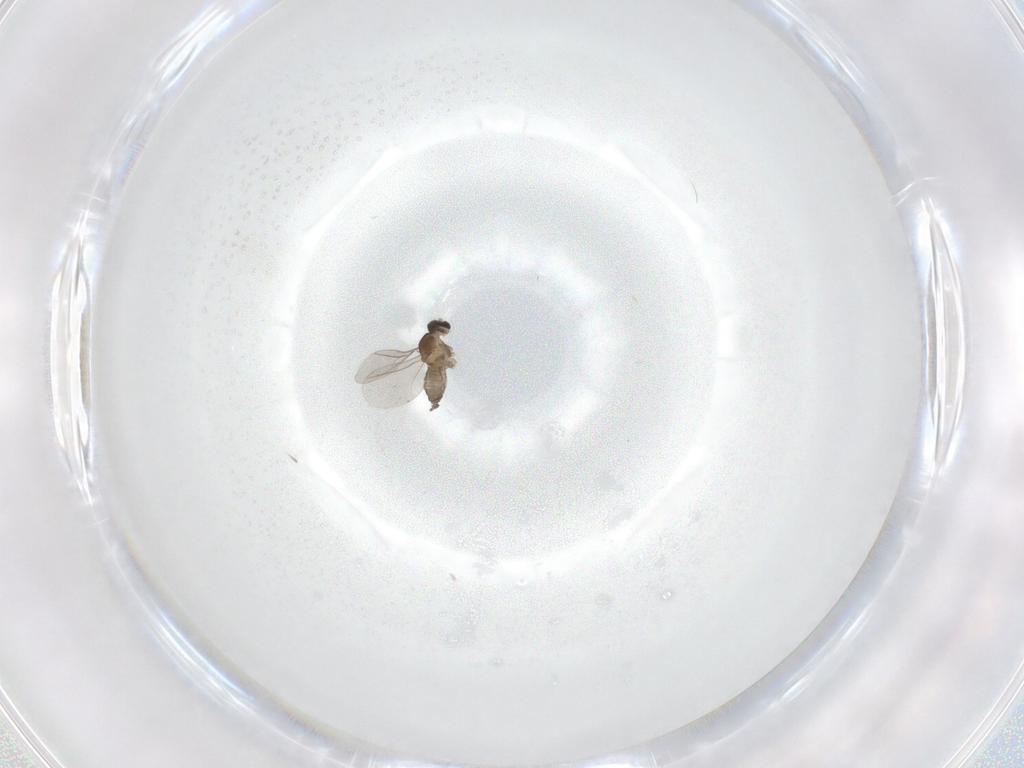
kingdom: Animalia
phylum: Arthropoda
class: Insecta
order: Diptera
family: Cecidomyiidae
